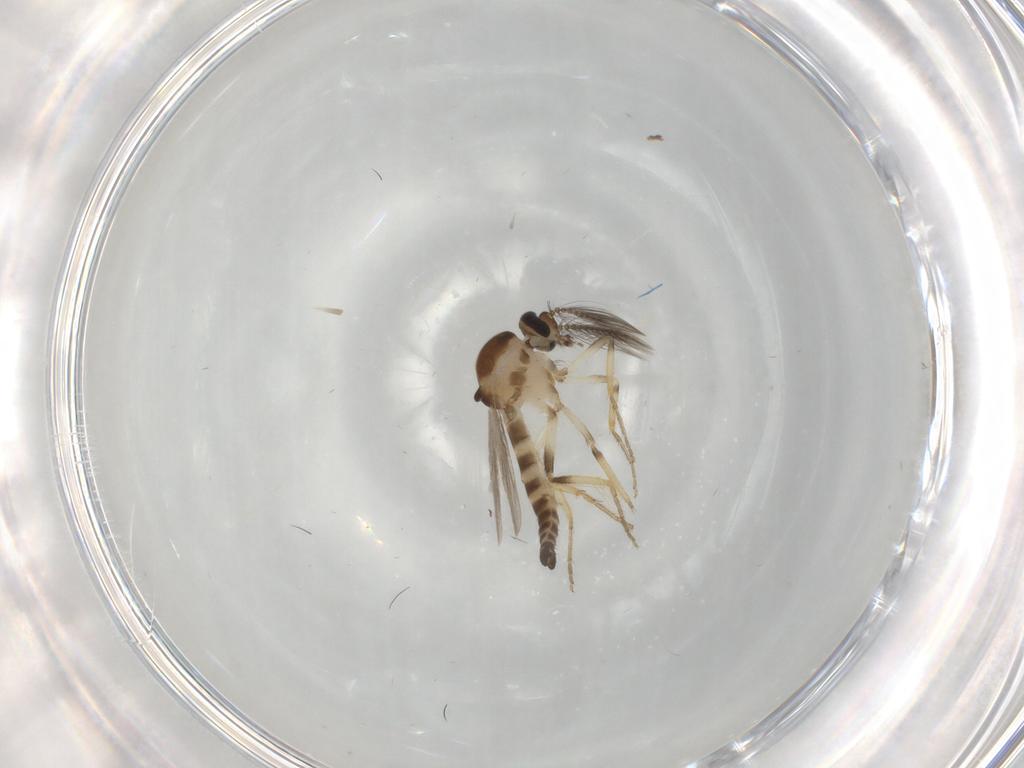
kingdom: Animalia
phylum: Arthropoda
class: Insecta
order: Diptera
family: Ceratopogonidae
